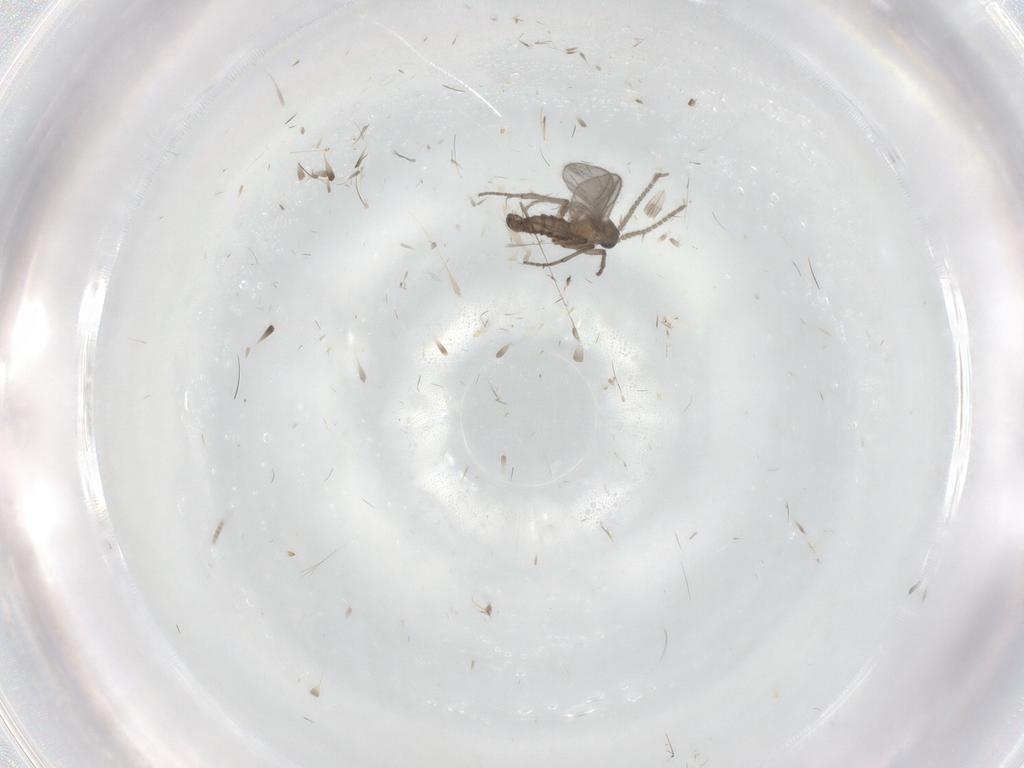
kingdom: Animalia
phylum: Arthropoda
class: Insecta
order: Diptera
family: Sciaridae
